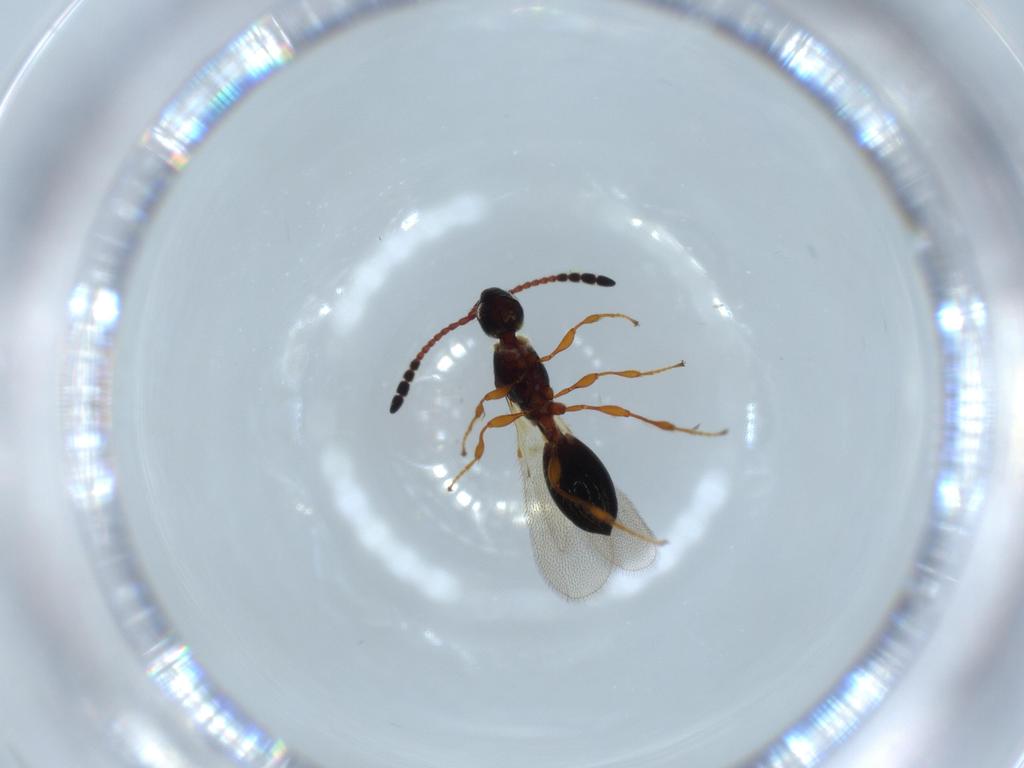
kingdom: Animalia
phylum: Arthropoda
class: Insecta
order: Hymenoptera
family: Diapriidae
